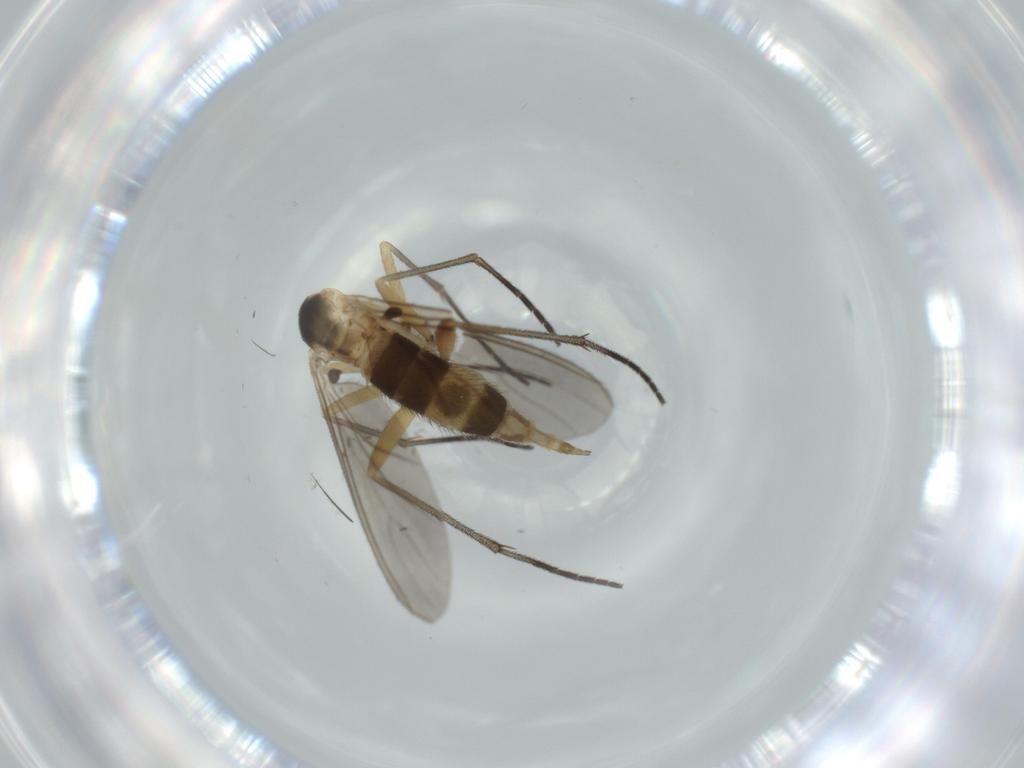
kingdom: Animalia
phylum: Arthropoda
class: Insecta
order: Diptera
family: Sciaridae
